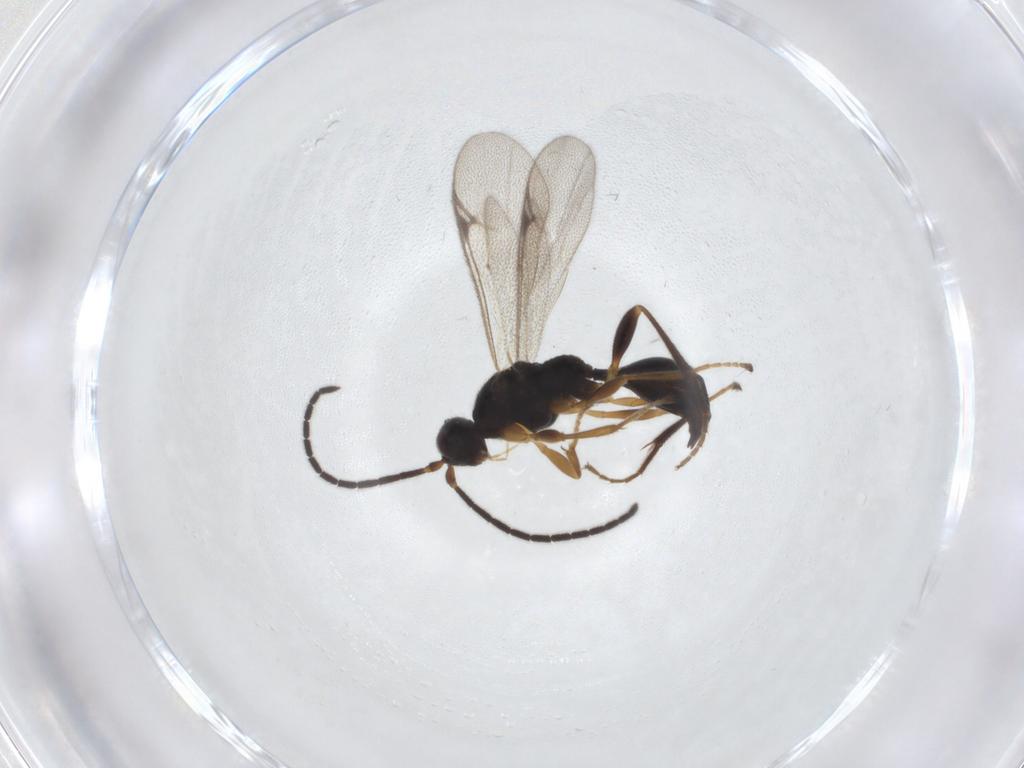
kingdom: Animalia
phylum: Arthropoda
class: Insecta
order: Hymenoptera
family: Proctotrupidae
